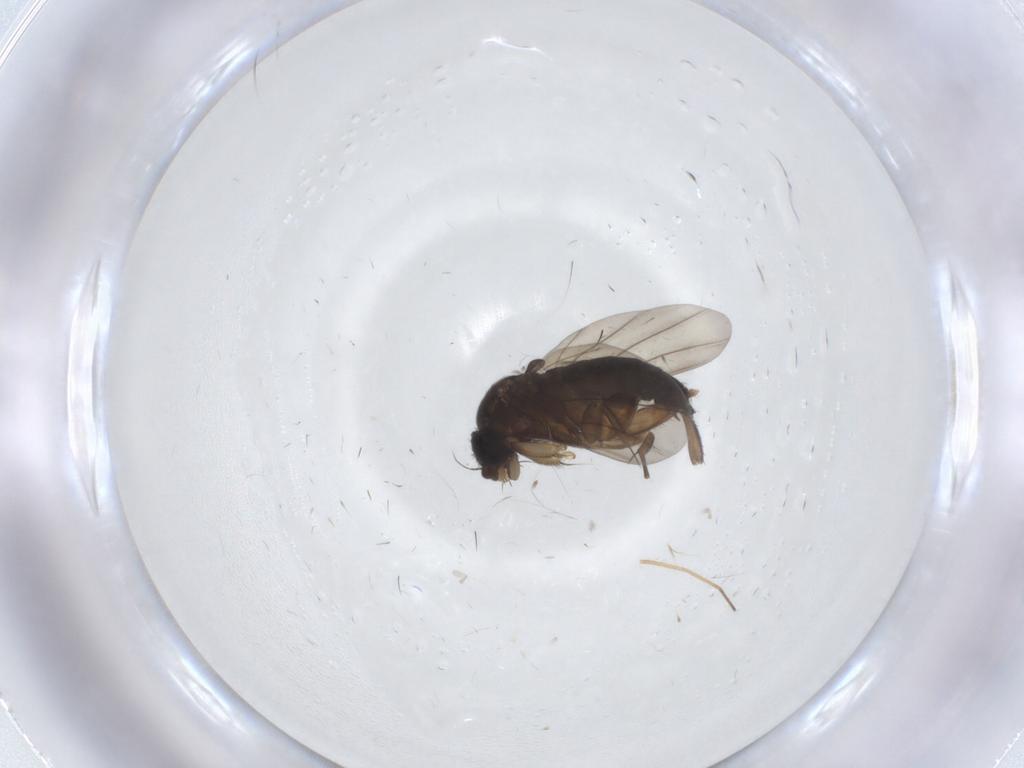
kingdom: Animalia
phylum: Arthropoda
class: Insecta
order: Diptera
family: Phoridae
